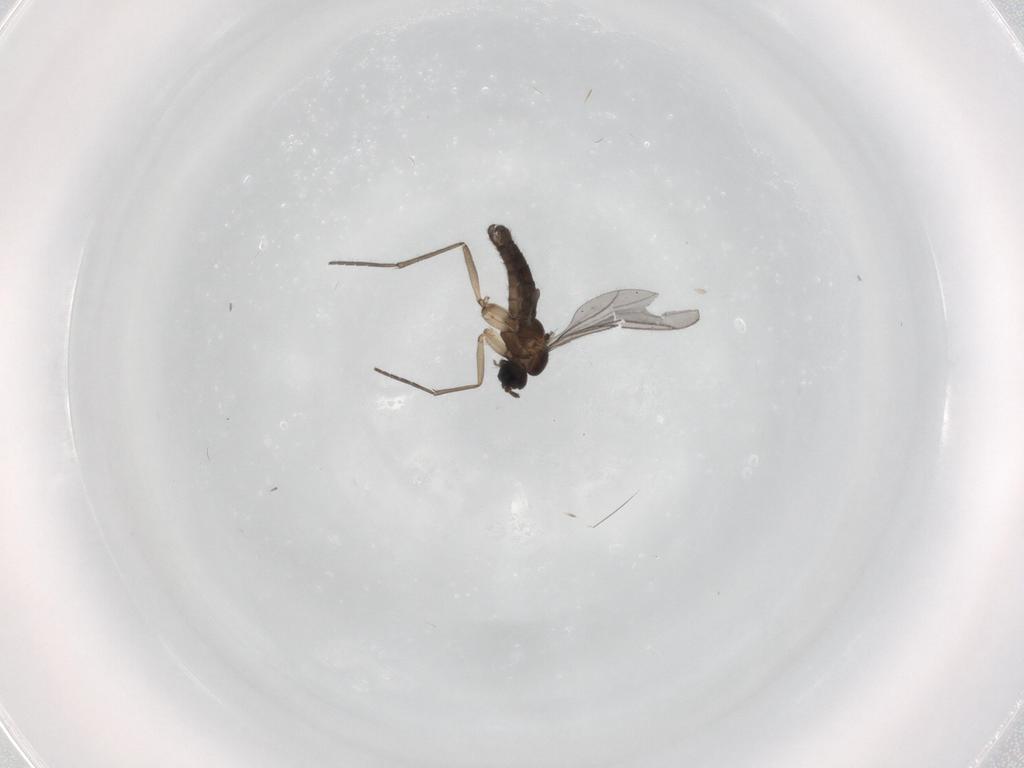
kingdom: Animalia
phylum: Arthropoda
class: Insecta
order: Diptera
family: Sciaridae
